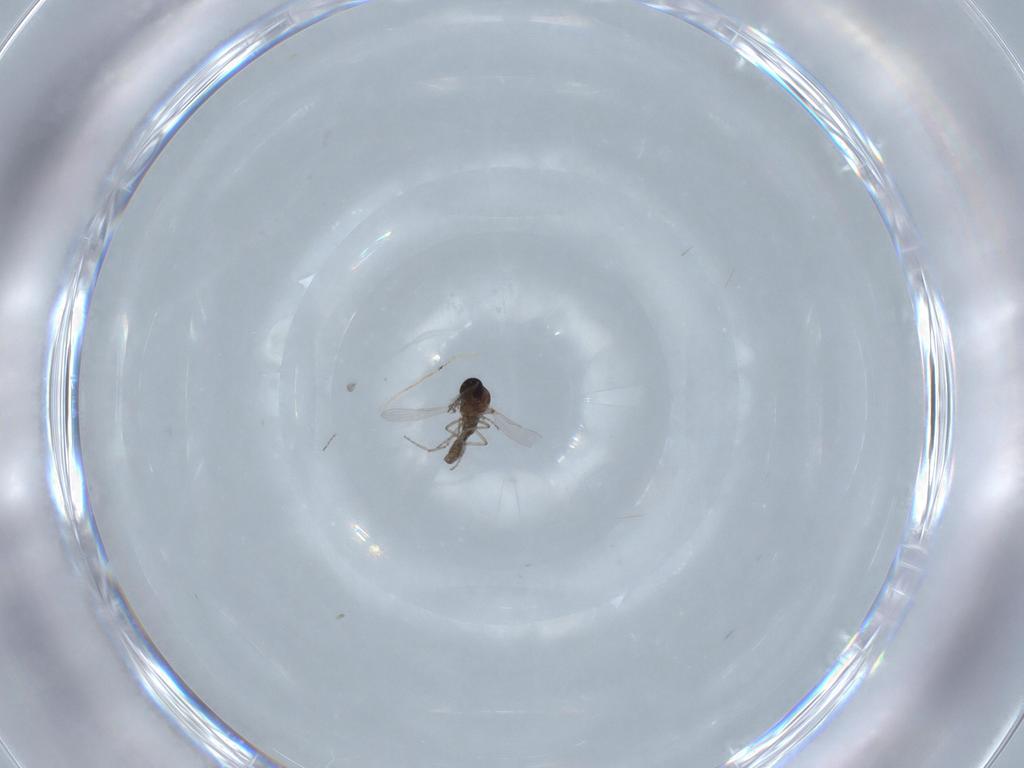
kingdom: Animalia
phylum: Arthropoda
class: Insecta
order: Diptera
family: Ceratopogonidae
